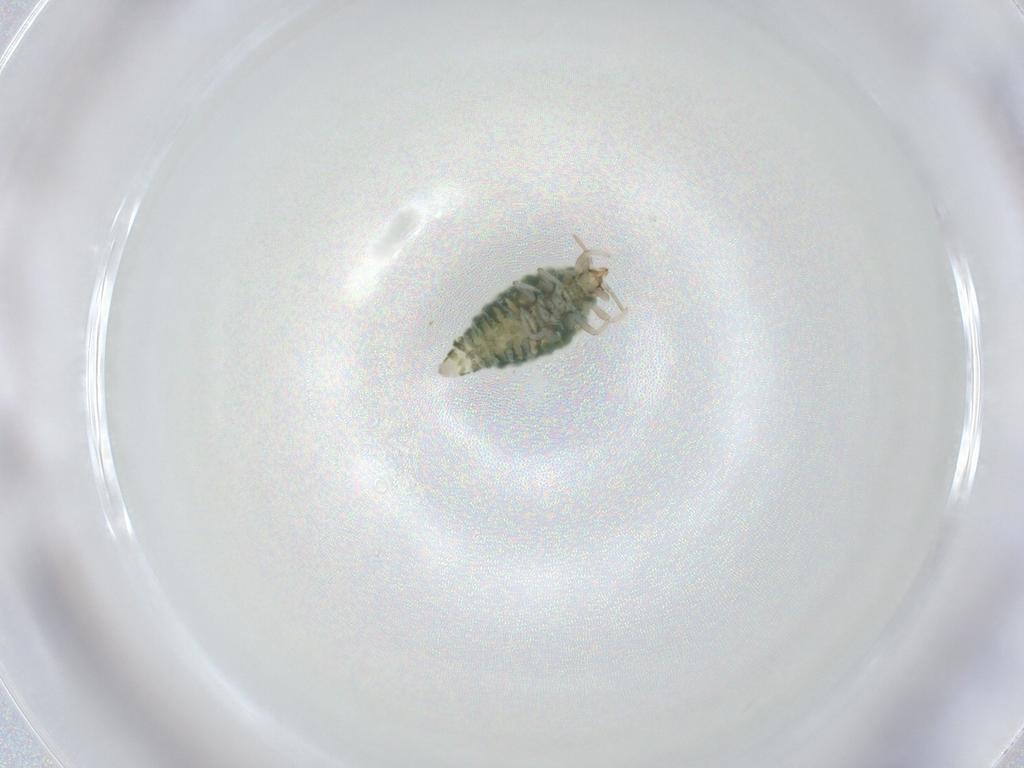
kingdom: Animalia
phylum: Arthropoda
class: Insecta
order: Neuroptera
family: Coniopterygidae
